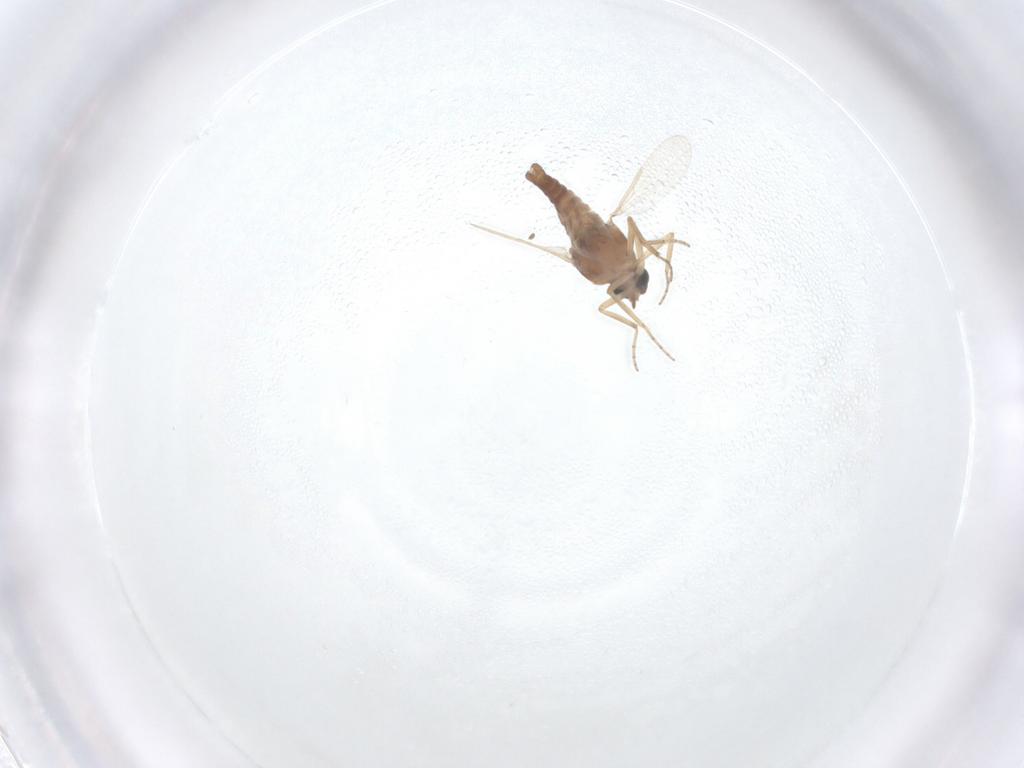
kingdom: Animalia
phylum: Arthropoda
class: Insecta
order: Diptera
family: Ceratopogonidae
